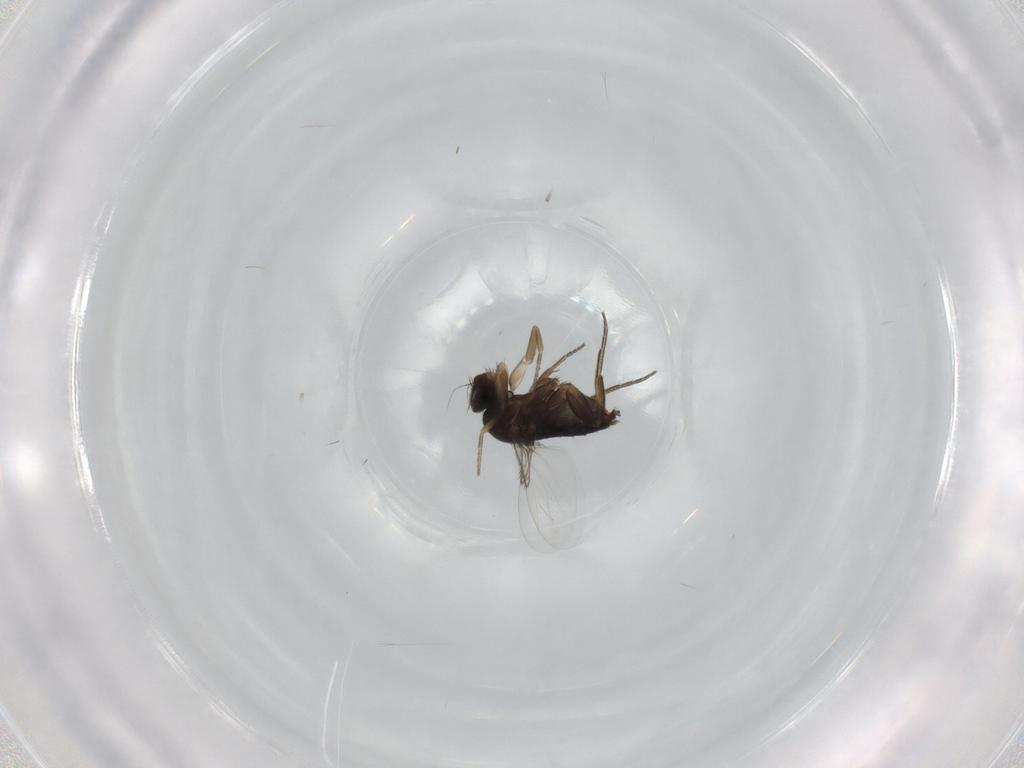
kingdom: Animalia
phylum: Arthropoda
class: Insecta
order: Diptera
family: Phoridae
